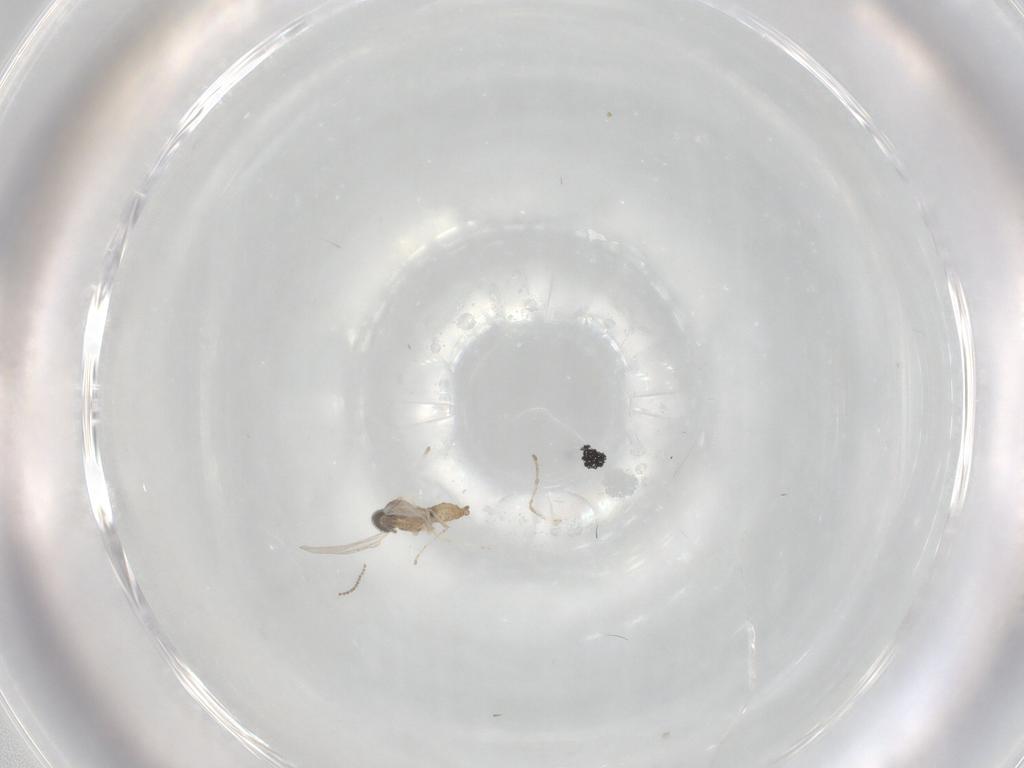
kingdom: Animalia
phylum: Arthropoda
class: Insecta
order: Diptera
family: Cecidomyiidae
